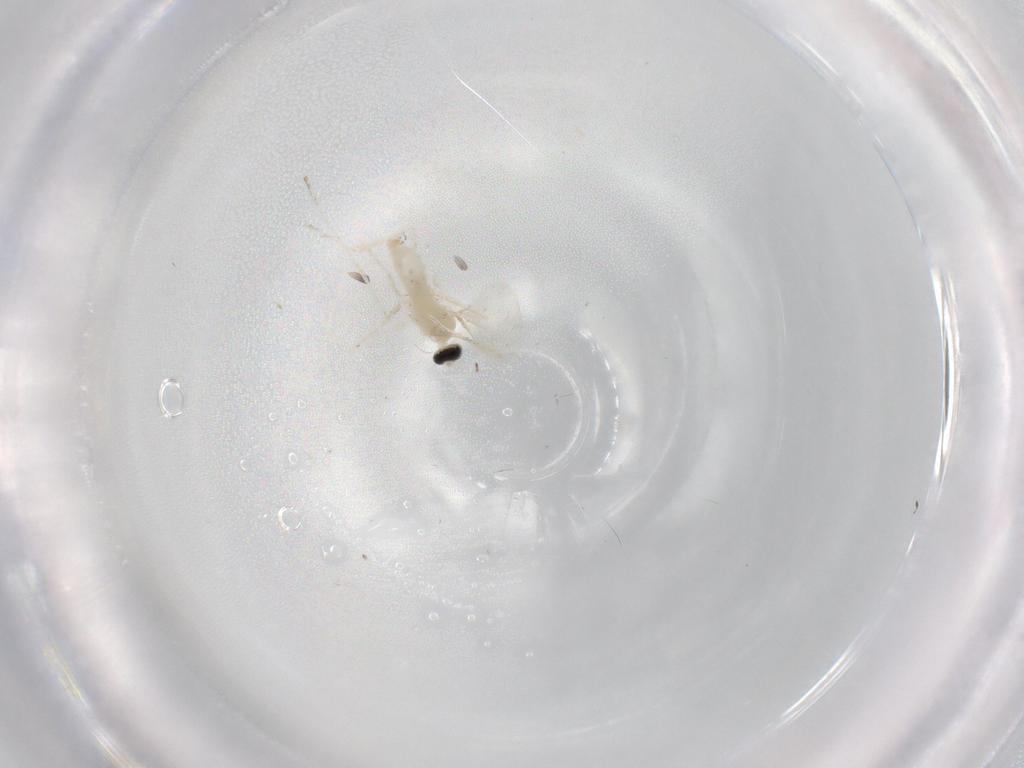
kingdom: Animalia
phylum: Arthropoda
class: Insecta
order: Diptera
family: Cecidomyiidae
